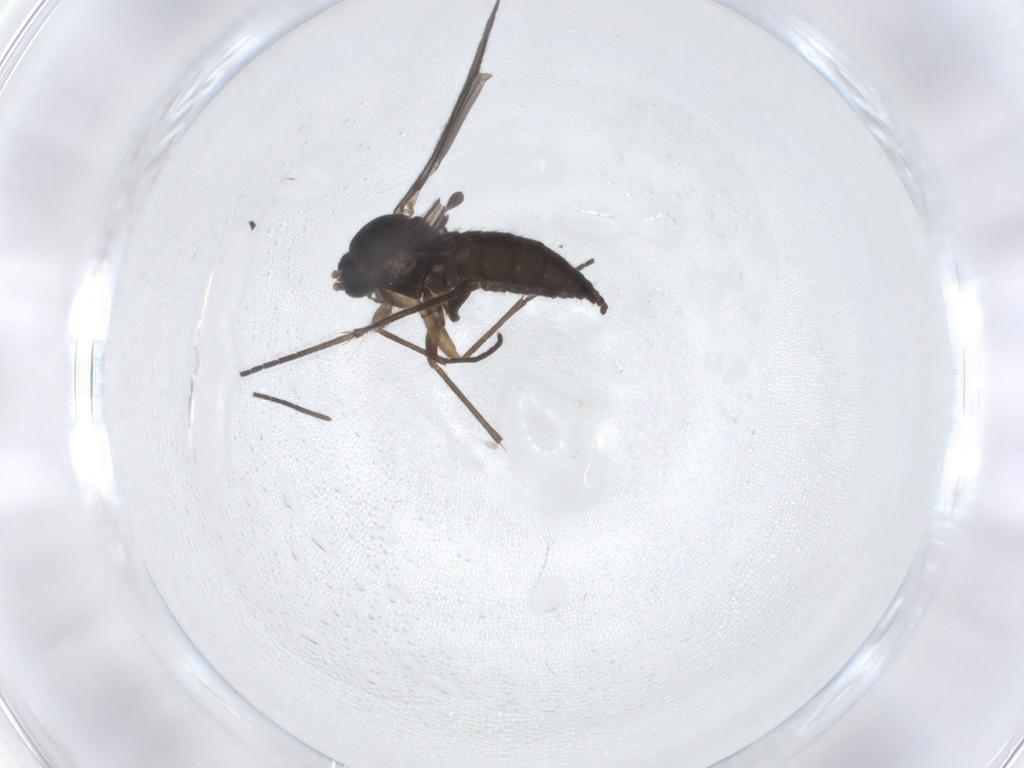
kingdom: Animalia
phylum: Arthropoda
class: Insecta
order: Diptera
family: Sciaridae
